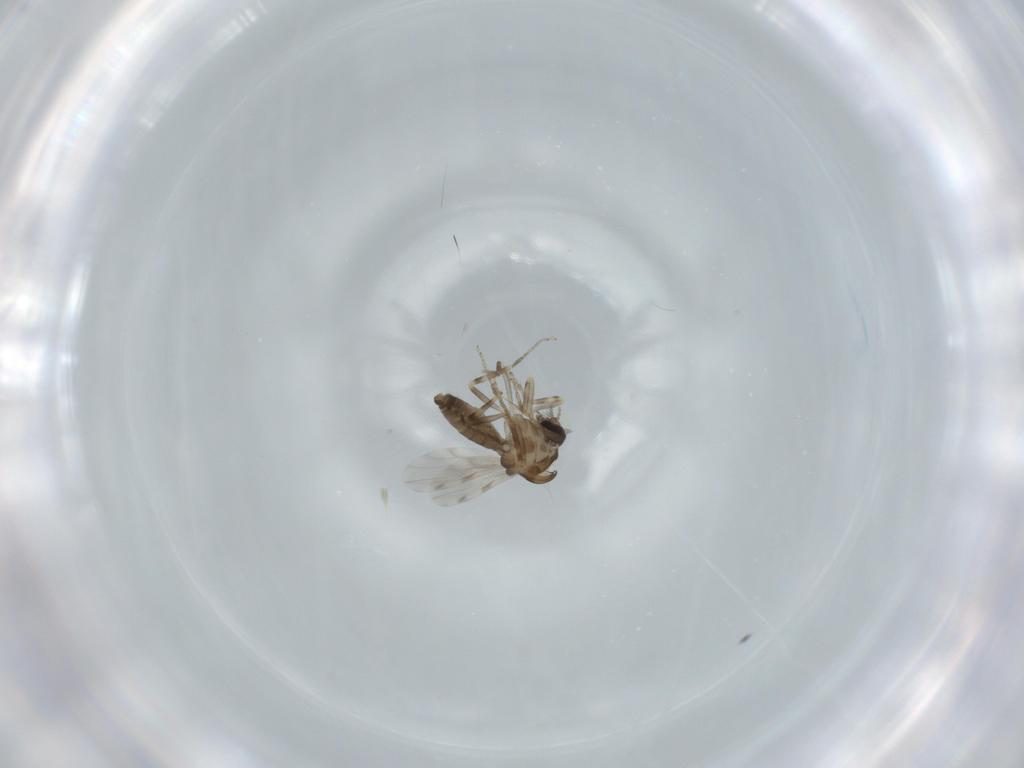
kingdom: Animalia
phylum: Arthropoda
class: Insecta
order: Diptera
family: Ceratopogonidae
